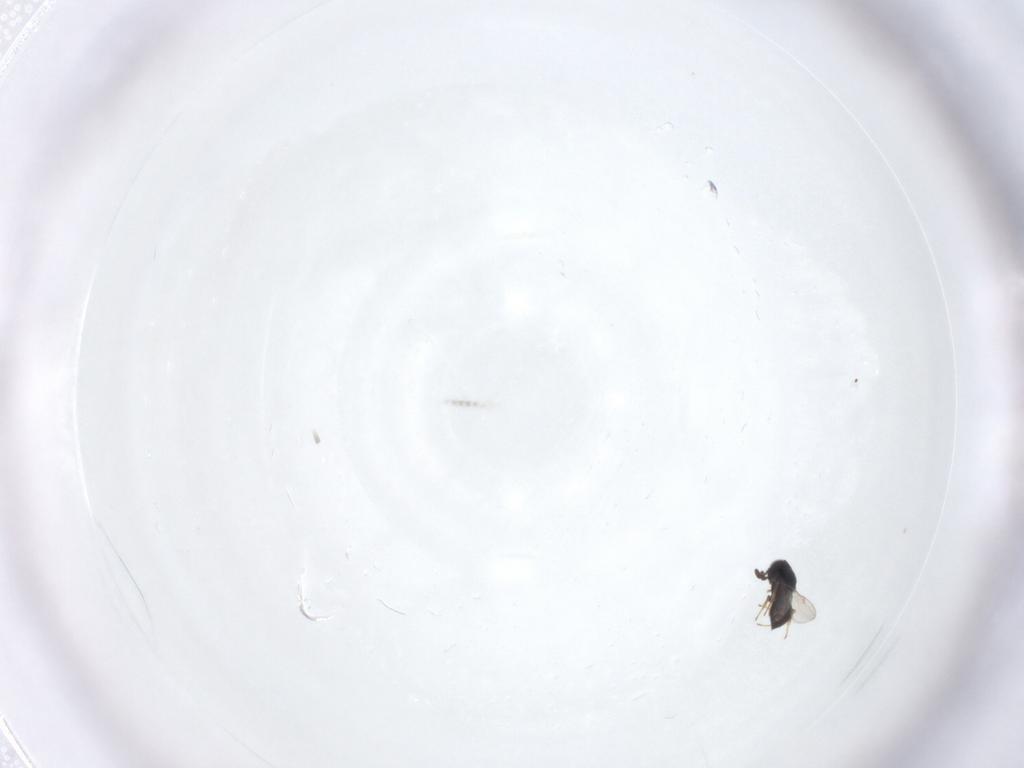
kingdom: Animalia
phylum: Arthropoda
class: Insecta
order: Hymenoptera
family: Scelionidae
